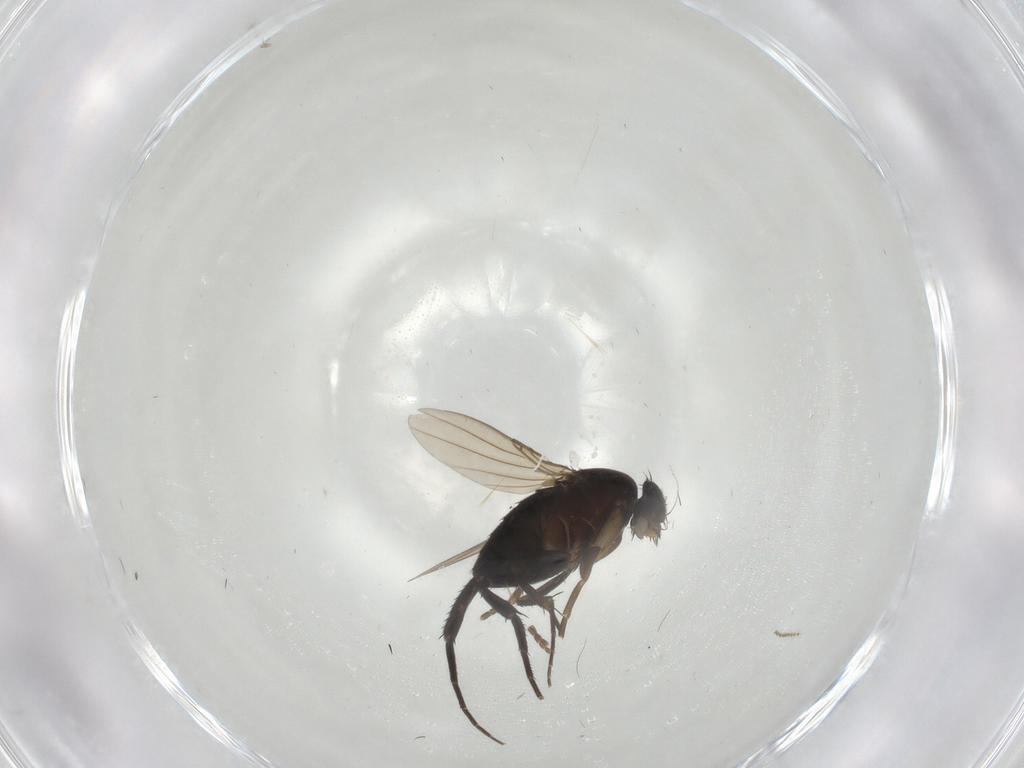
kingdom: Animalia
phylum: Arthropoda
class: Insecta
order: Diptera
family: Phoridae
